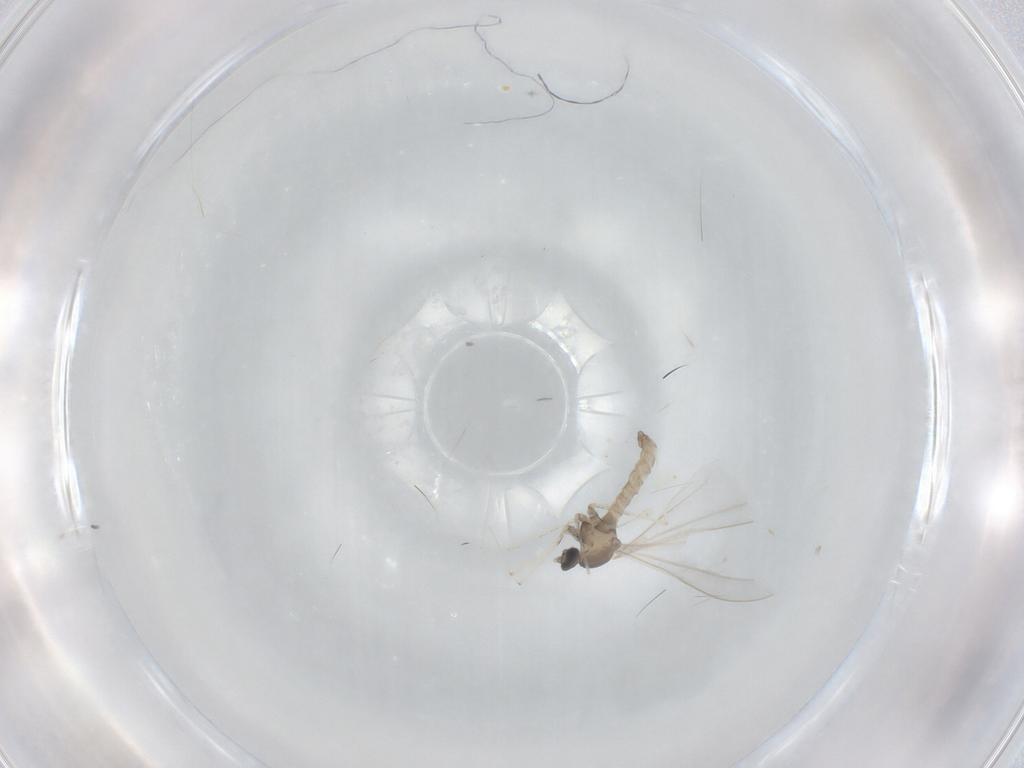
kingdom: Animalia
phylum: Arthropoda
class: Insecta
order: Diptera
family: Cecidomyiidae
